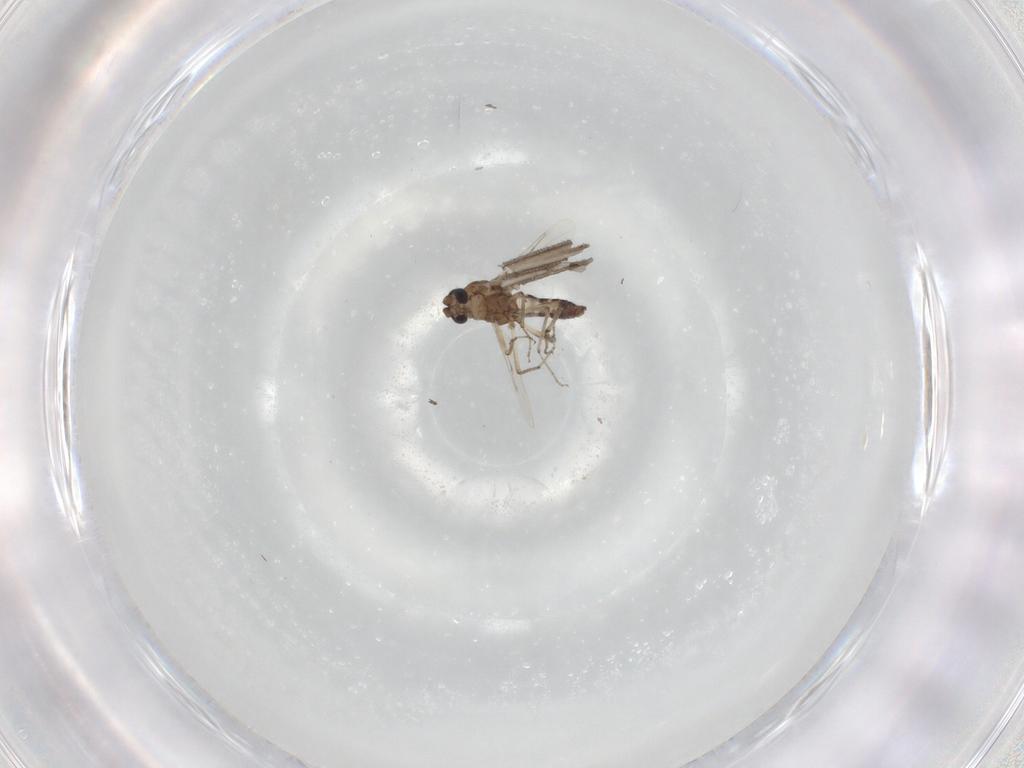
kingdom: Animalia
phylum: Arthropoda
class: Insecta
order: Diptera
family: Ceratopogonidae
